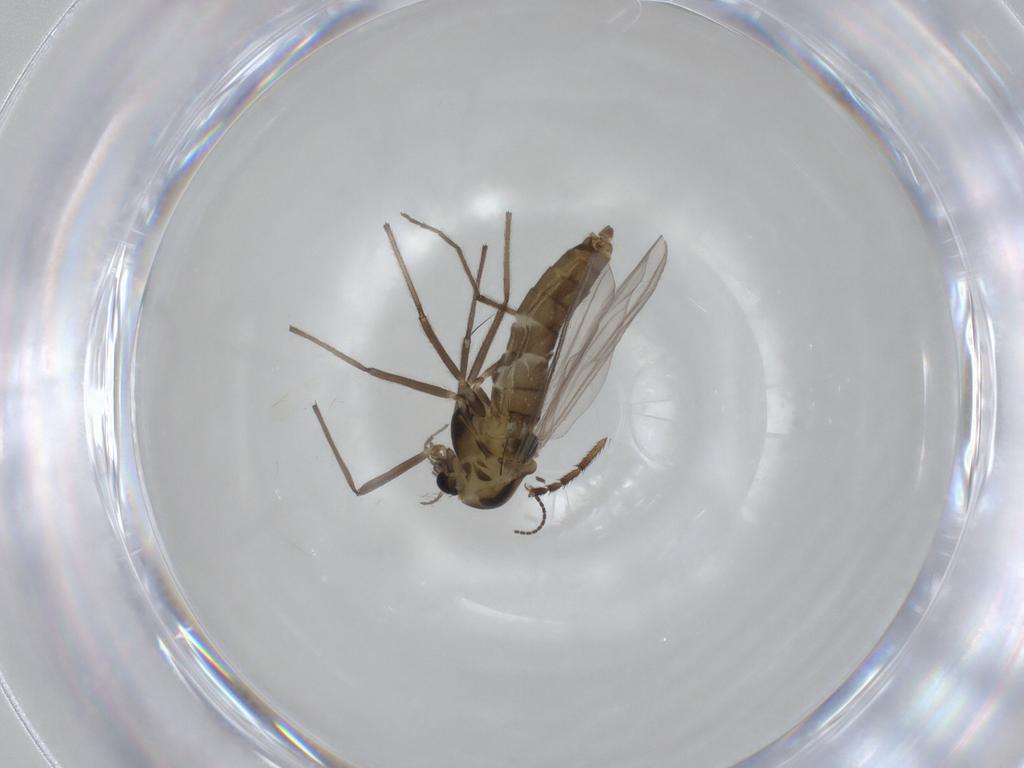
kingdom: Animalia
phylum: Arthropoda
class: Insecta
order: Diptera
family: Chironomidae
